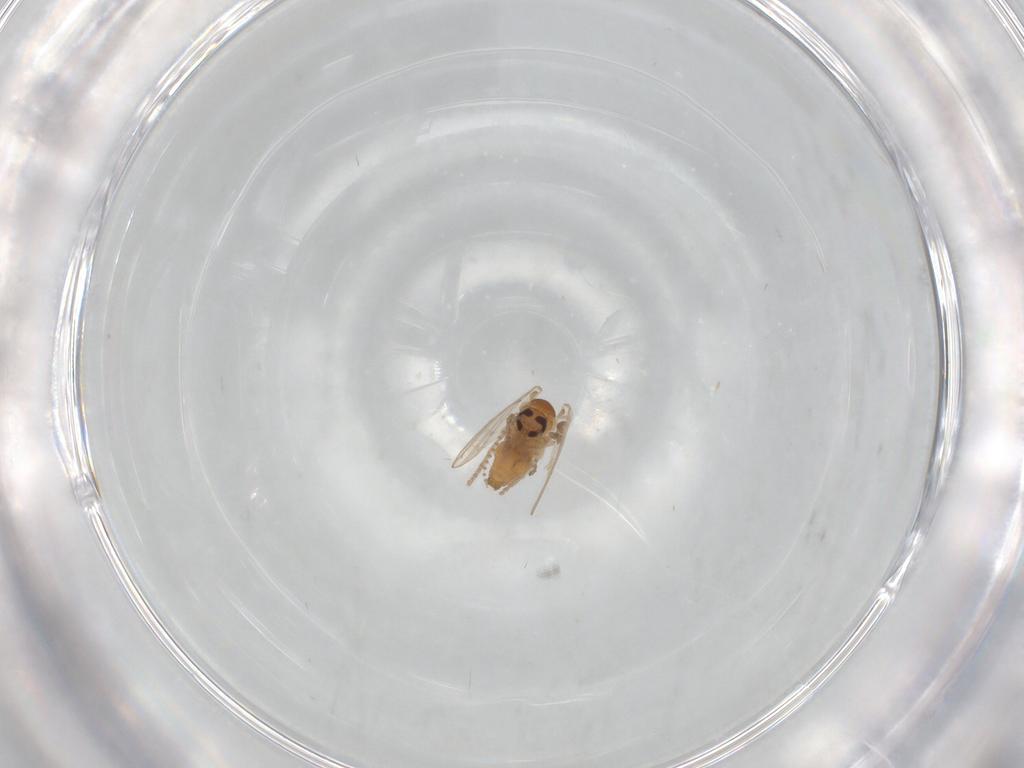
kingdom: Animalia
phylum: Arthropoda
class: Insecta
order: Diptera
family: Psychodidae
